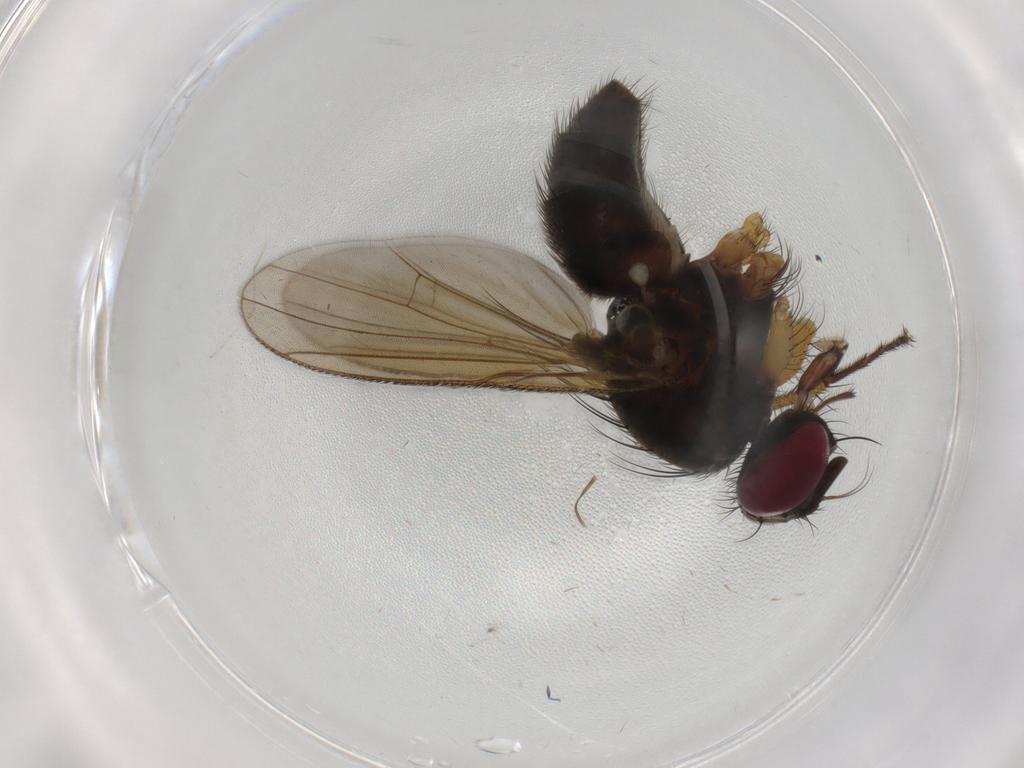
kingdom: Animalia
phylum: Arthropoda
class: Insecta
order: Diptera
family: Muscidae
